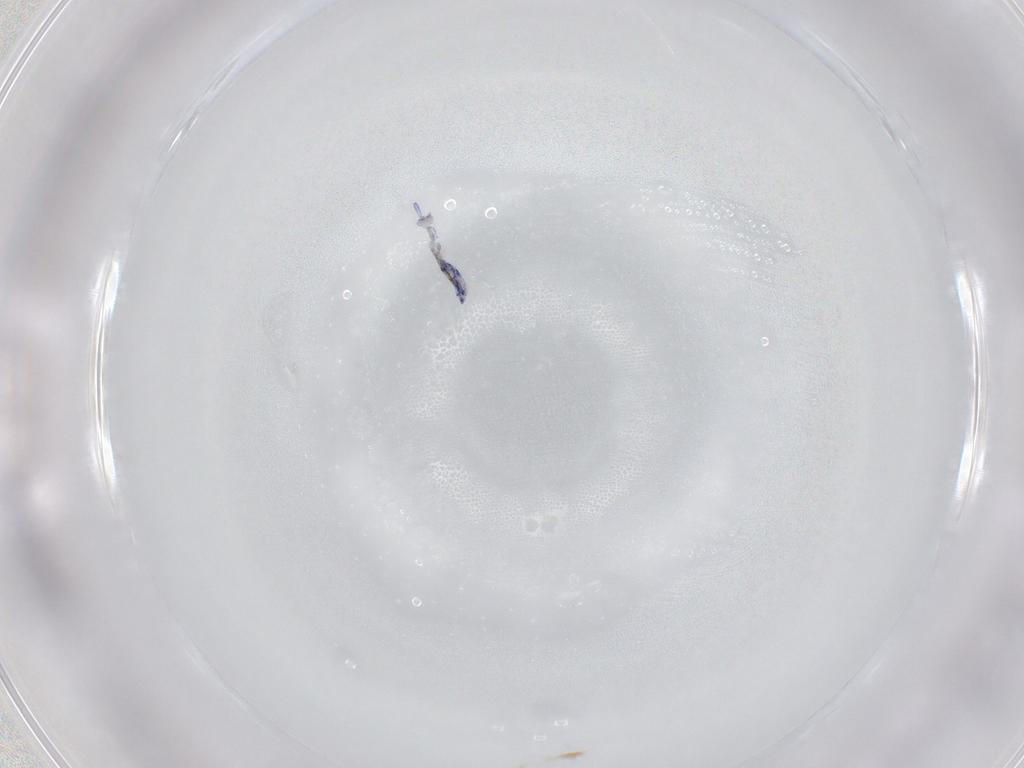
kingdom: Animalia
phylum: Arthropoda
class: Collembola
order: Entomobryomorpha
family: Entomobryidae
